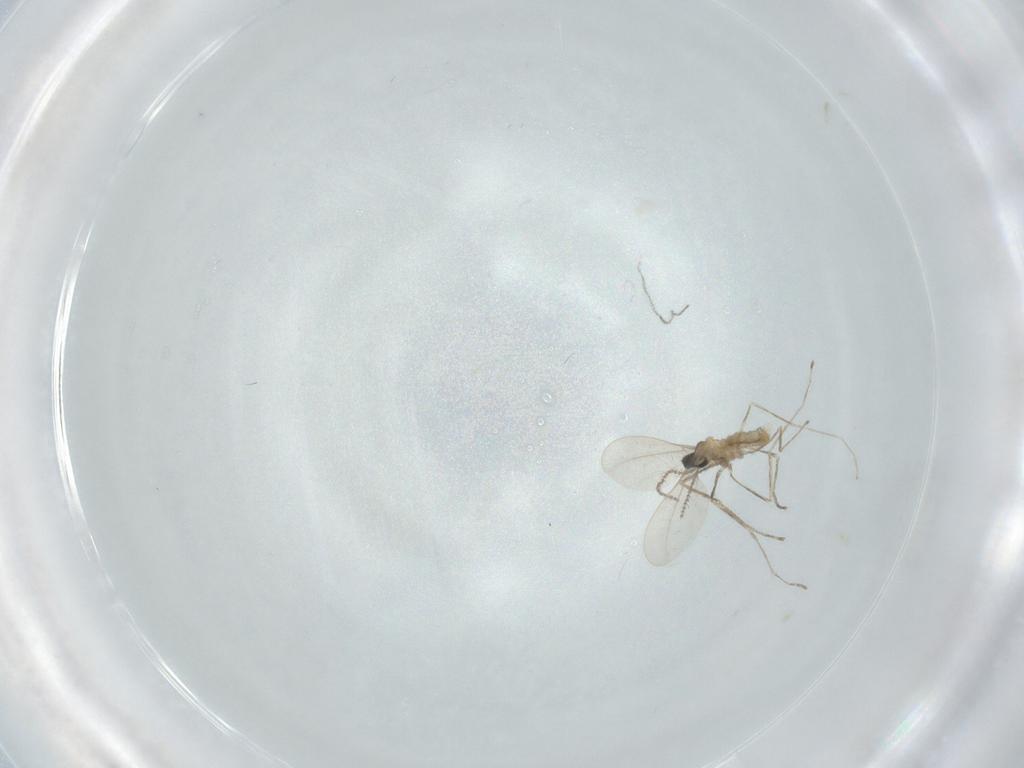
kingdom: Animalia
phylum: Arthropoda
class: Insecta
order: Diptera
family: Cecidomyiidae
